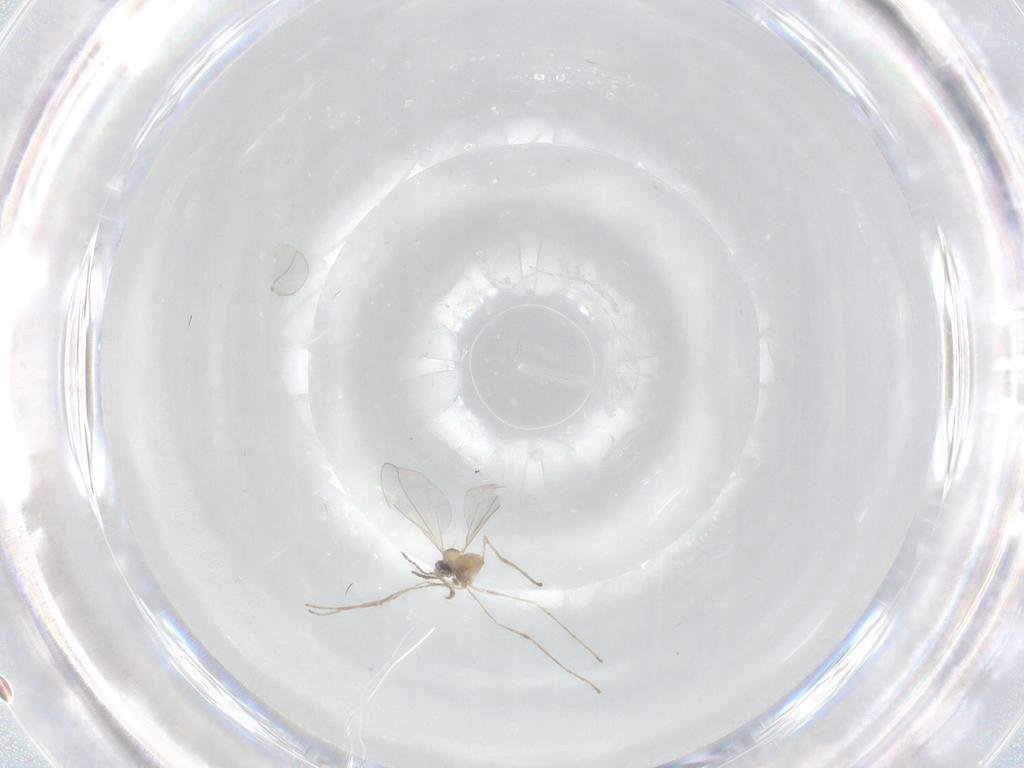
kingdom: Animalia
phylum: Arthropoda
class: Insecta
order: Diptera
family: Cecidomyiidae
